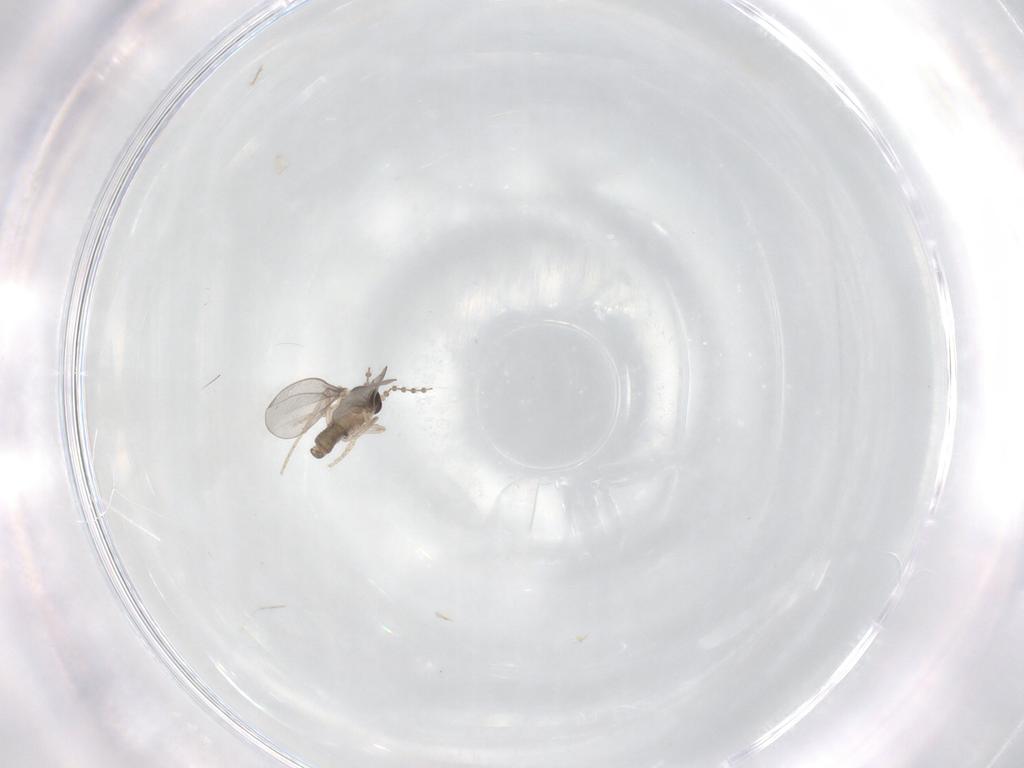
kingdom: Animalia
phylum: Arthropoda
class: Insecta
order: Diptera
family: Cecidomyiidae
